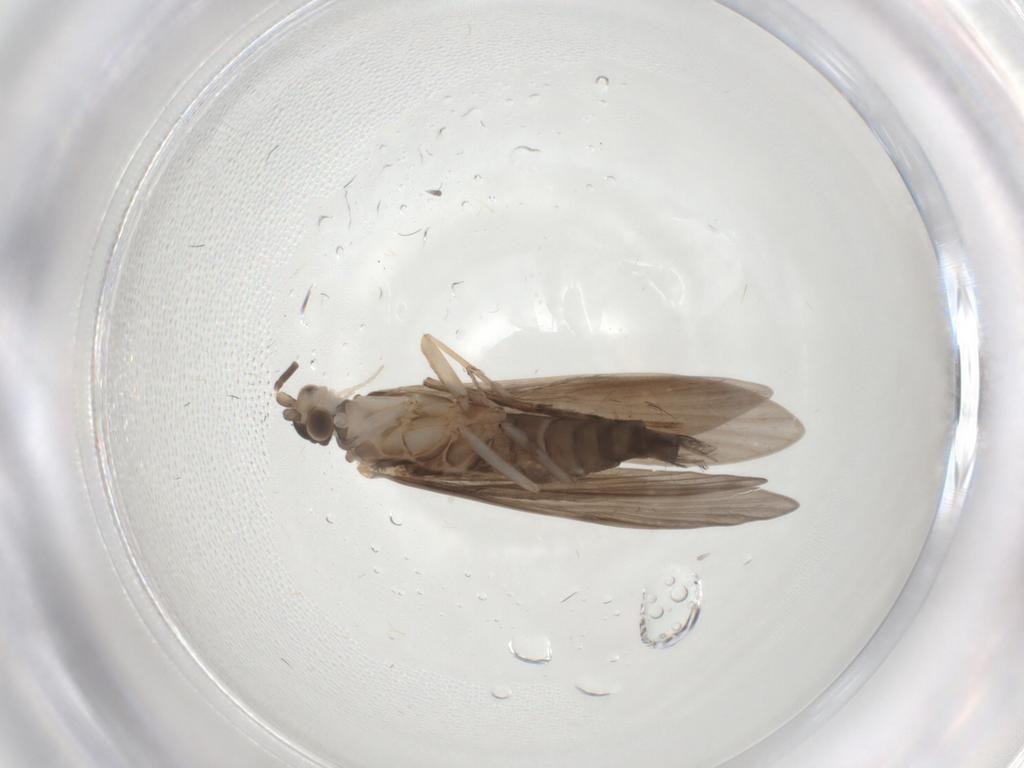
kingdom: Animalia
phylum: Arthropoda
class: Insecta
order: Trichoptera
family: Xiphocentronidae
